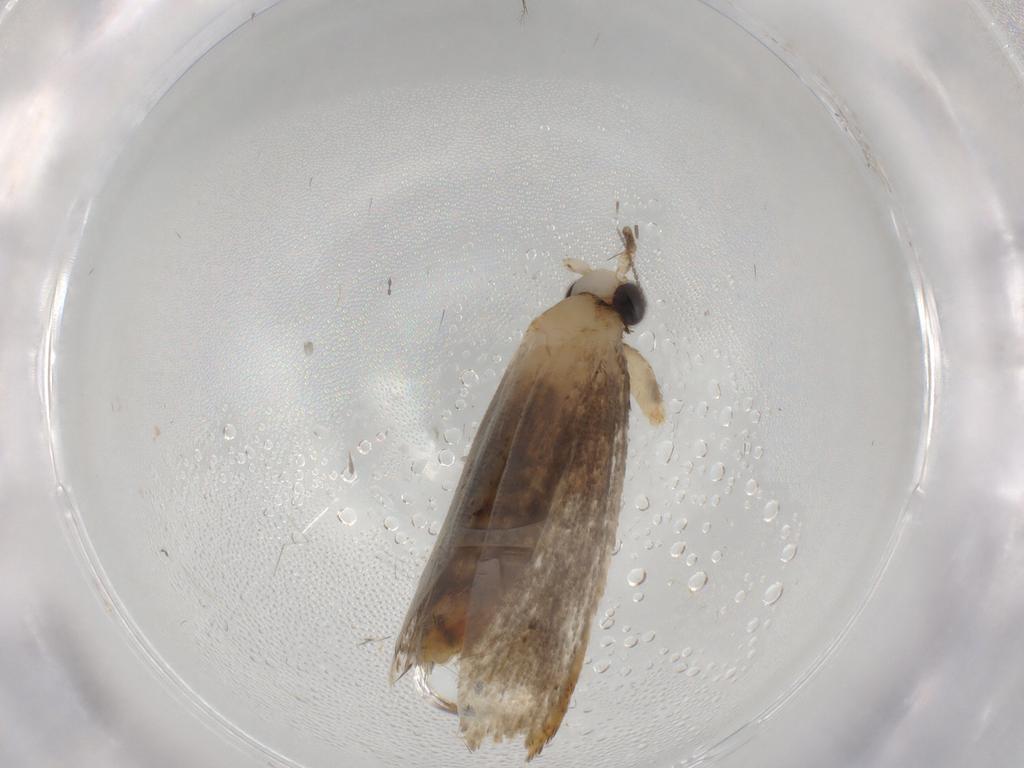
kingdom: Animalia
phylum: Arthropoda
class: Insecta
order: Lepidoptera
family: Tineidae
